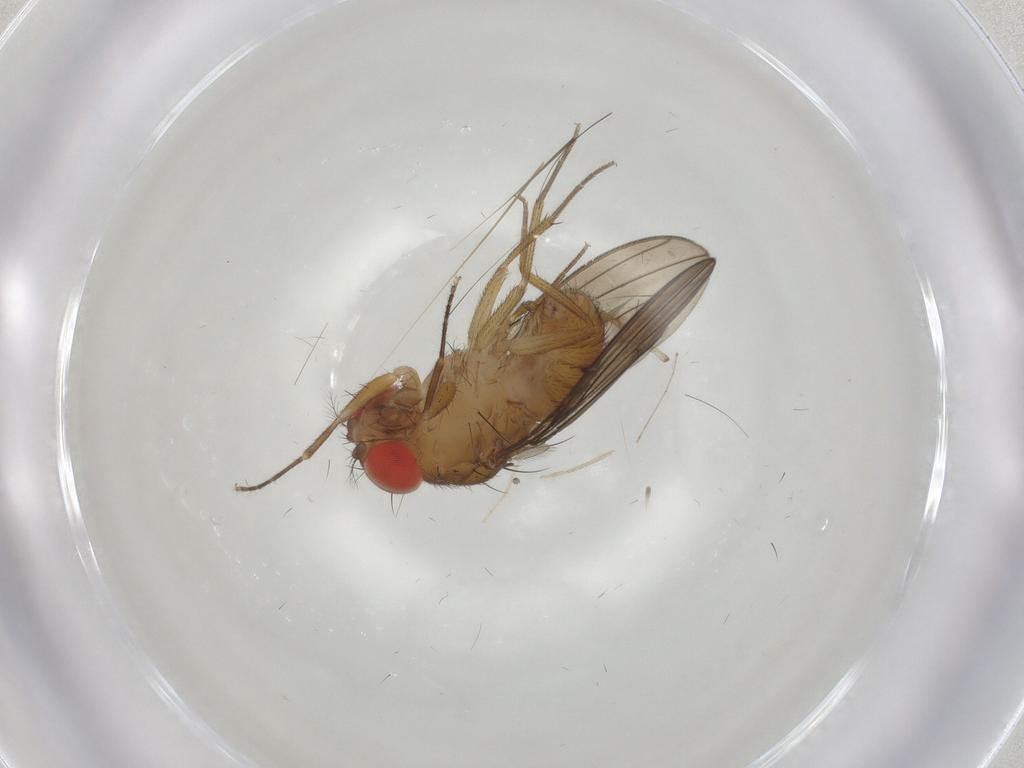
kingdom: Animalia
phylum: Arthropoda
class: Insecta
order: Diptera
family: Drosophilidae
